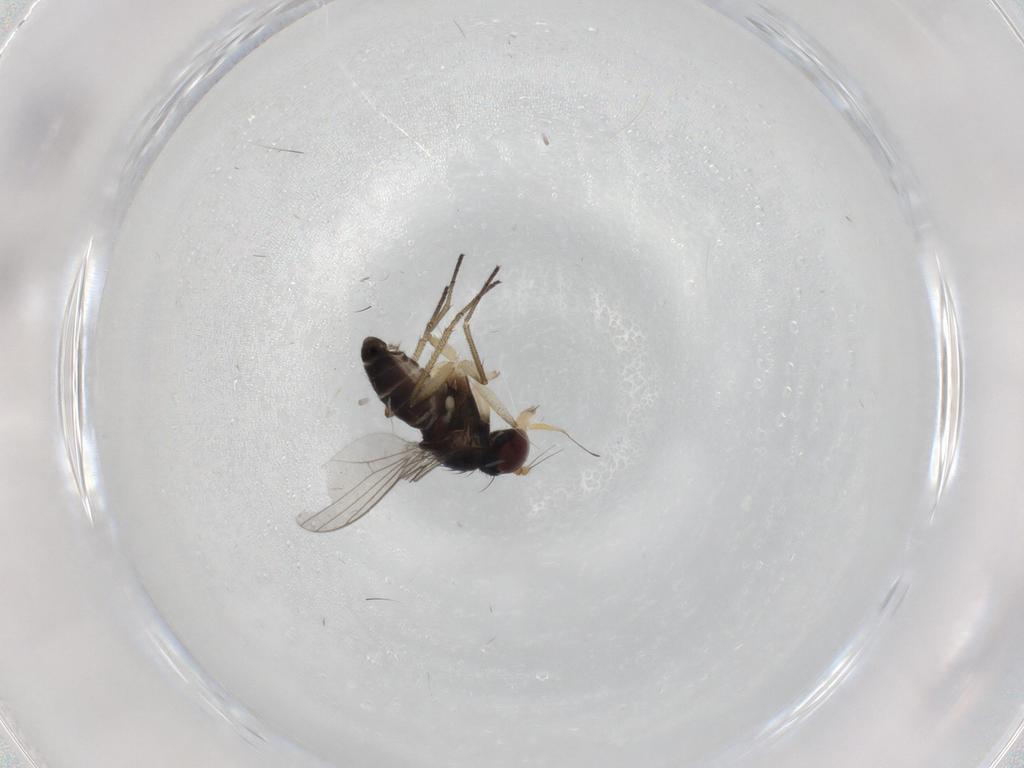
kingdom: Animalia
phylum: Arthropoda
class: Insecta
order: Diptera
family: Dolichopodidae
